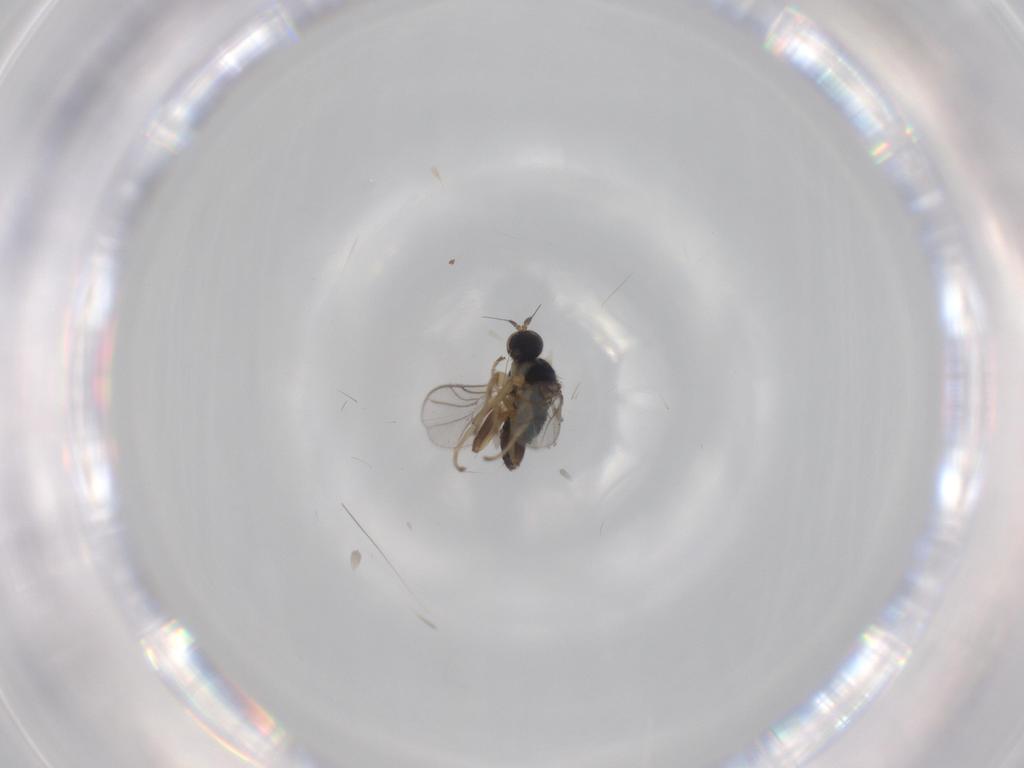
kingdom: Animalia
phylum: Arthropoda
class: Insecta
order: Diptera
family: Hybotidae
